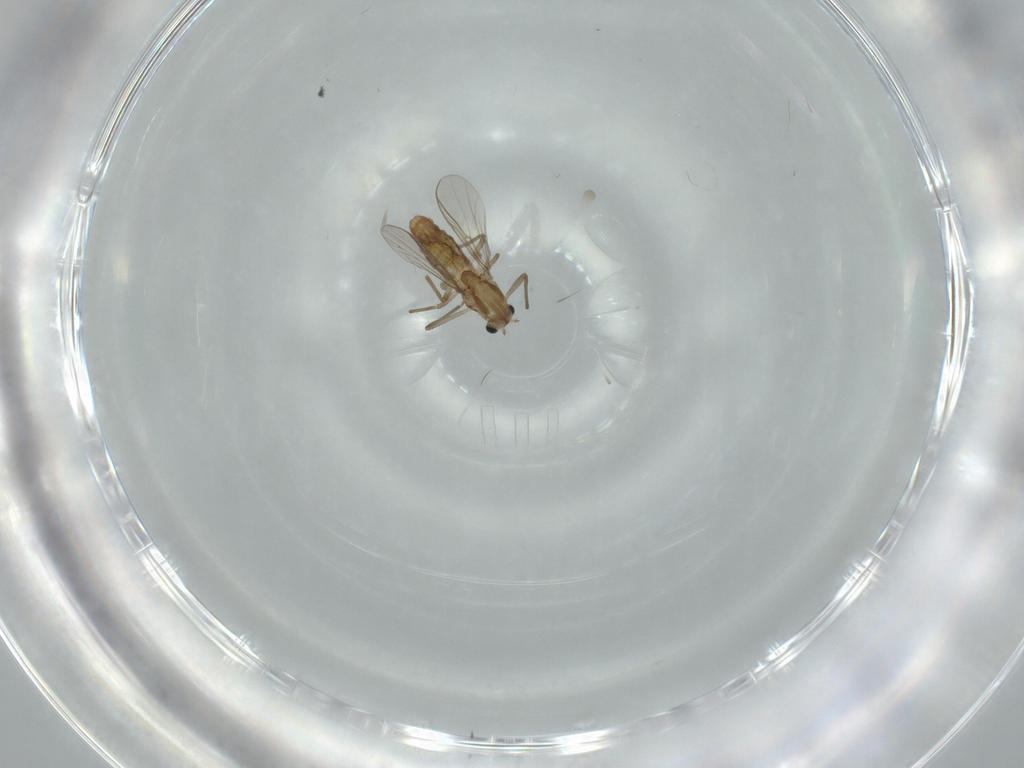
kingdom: Animalia
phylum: Arthropoda
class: Insecta
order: Diptera
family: Chironomidae
